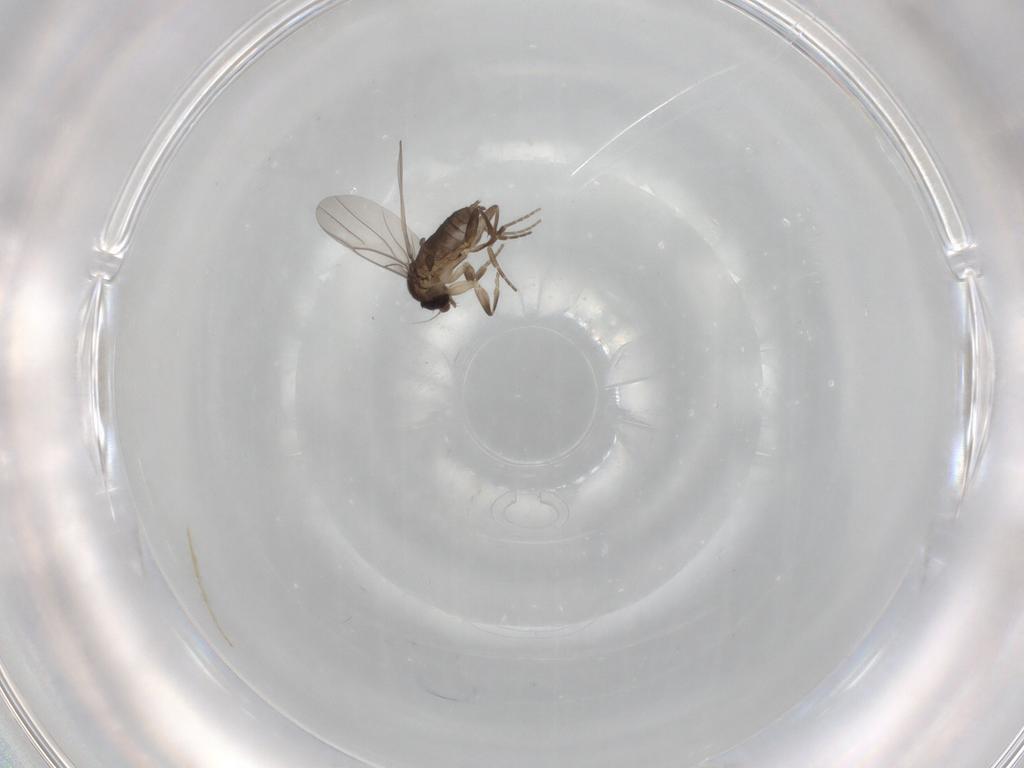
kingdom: Animalia
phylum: Arthropoda
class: Insecta
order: Diptera
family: Chironomidae
